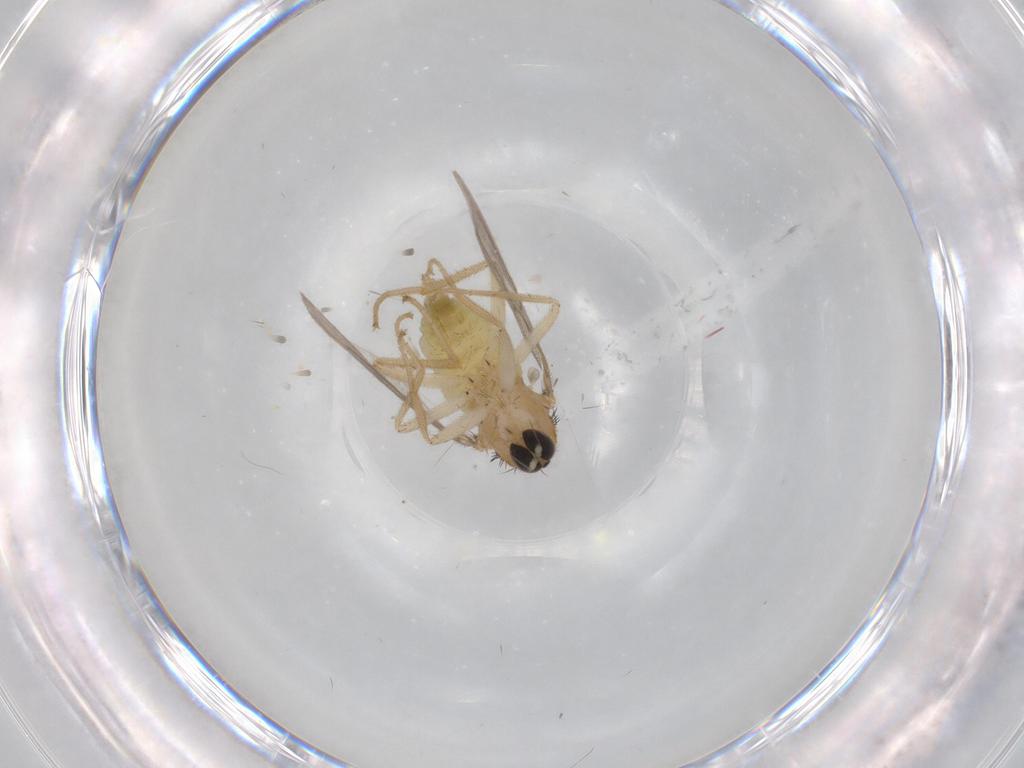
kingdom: Animalia
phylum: Arthropoda
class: Insecta
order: Diptera
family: Hybotidae
